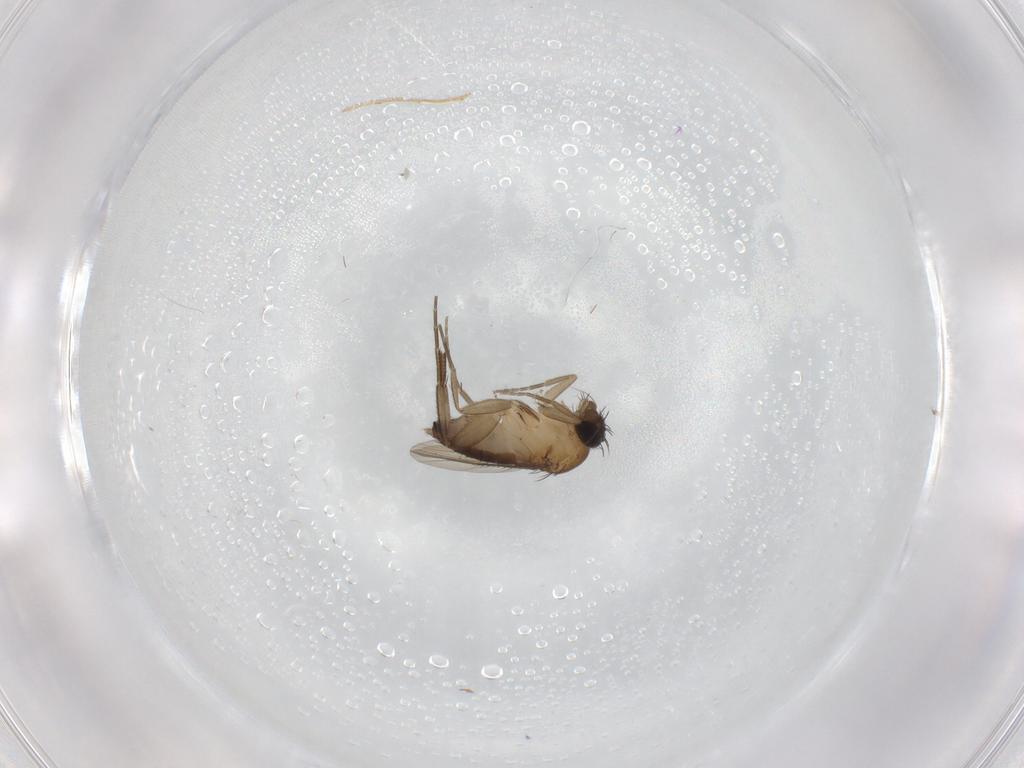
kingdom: Animalia
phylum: Arthropoda
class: Insecta
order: Diptera
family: Phoridae
